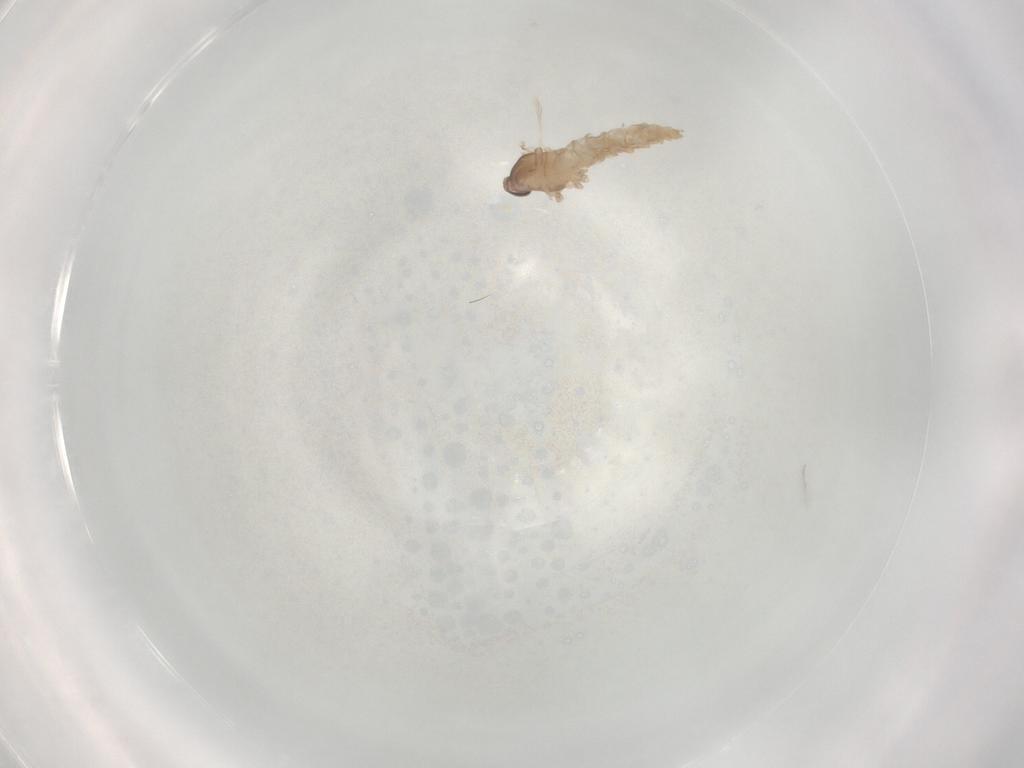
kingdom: Animalia
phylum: Arthropoda
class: Insecta
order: Diptera
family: Cecidomyiidae
